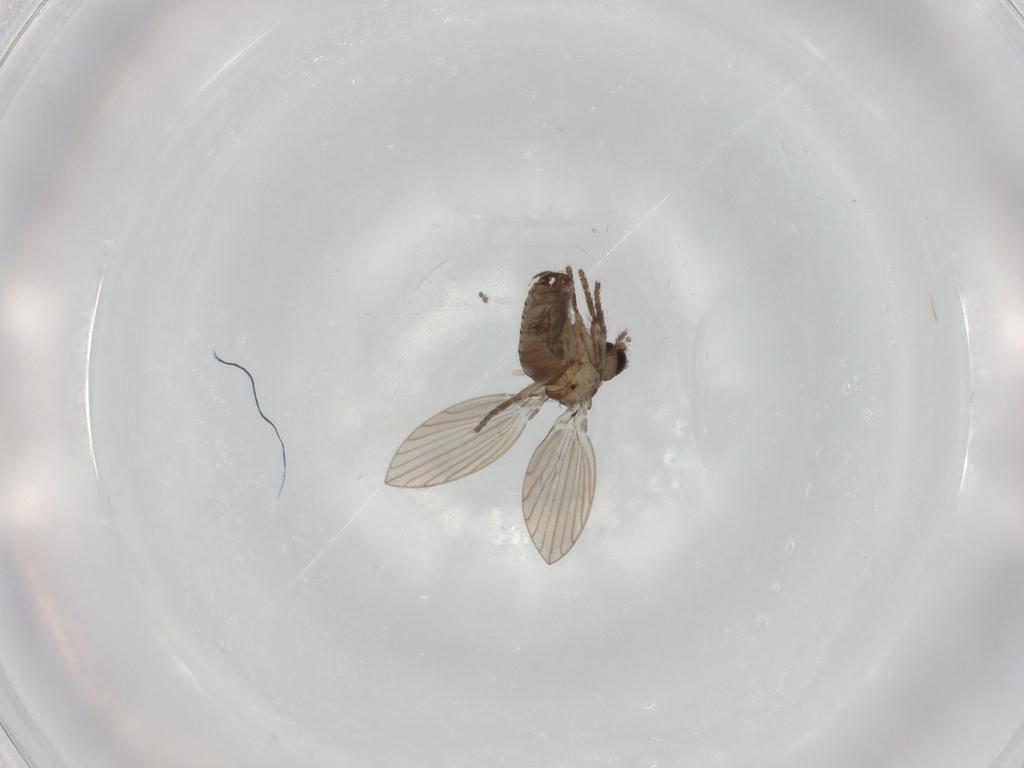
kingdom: Animalia
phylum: Arthropoda
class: Insecta
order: Diptera
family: Psychodidae
